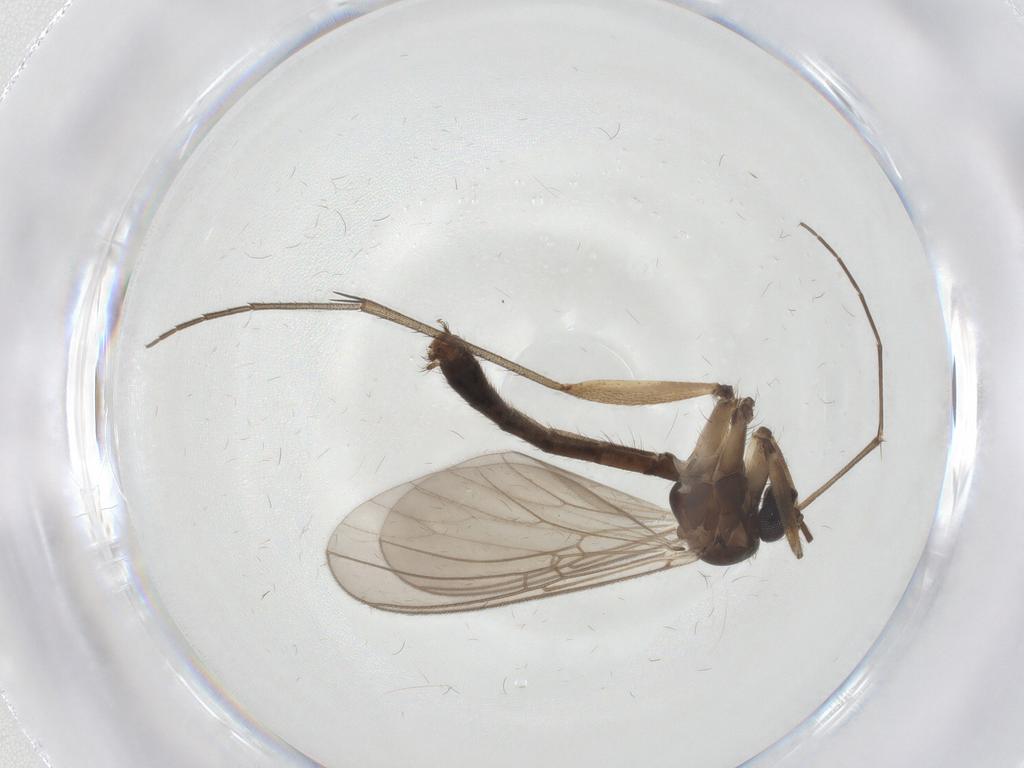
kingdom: Animalia
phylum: Arthropoda
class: Insecta
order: Diptera
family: Mycetophilidae
